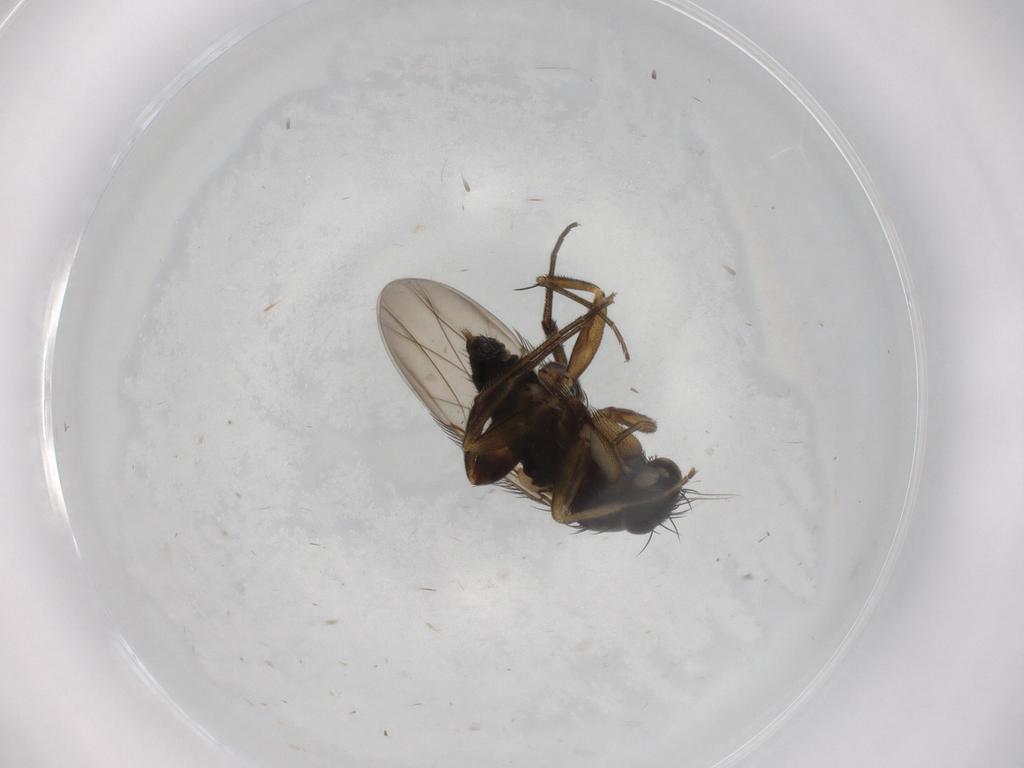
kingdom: Animalia
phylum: Arthropoda
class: Insecta
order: Diptera
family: Phoridae
